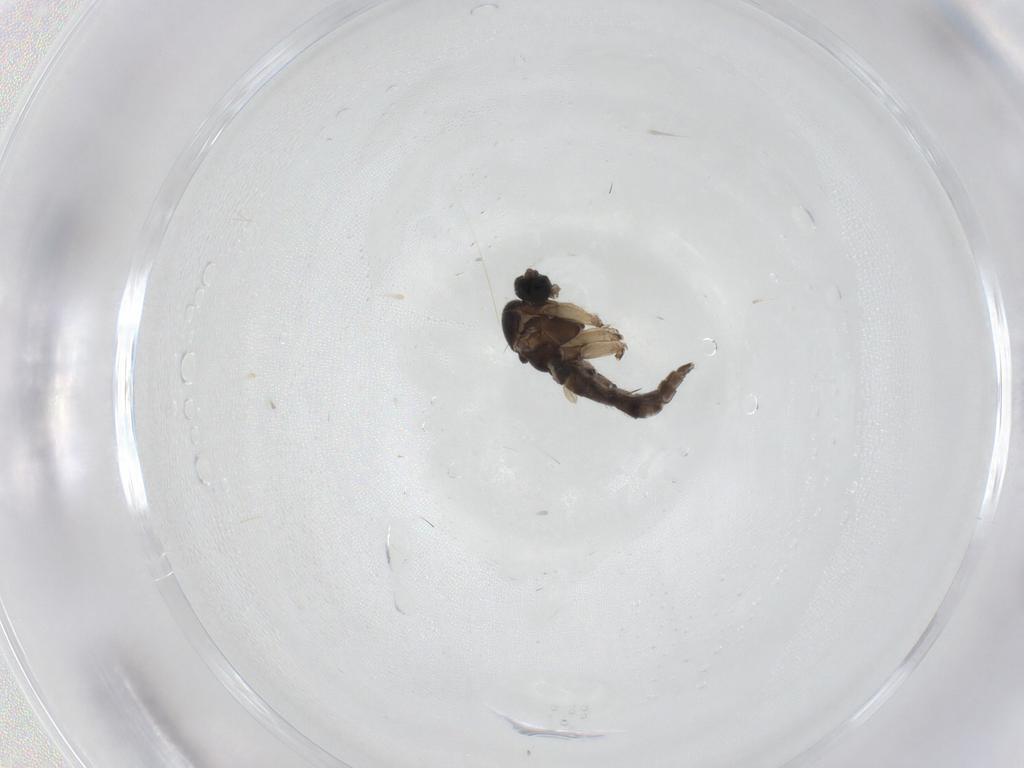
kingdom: Animalia
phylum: Arthropoda
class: Insecta
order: Diptera
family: Sciaridae
